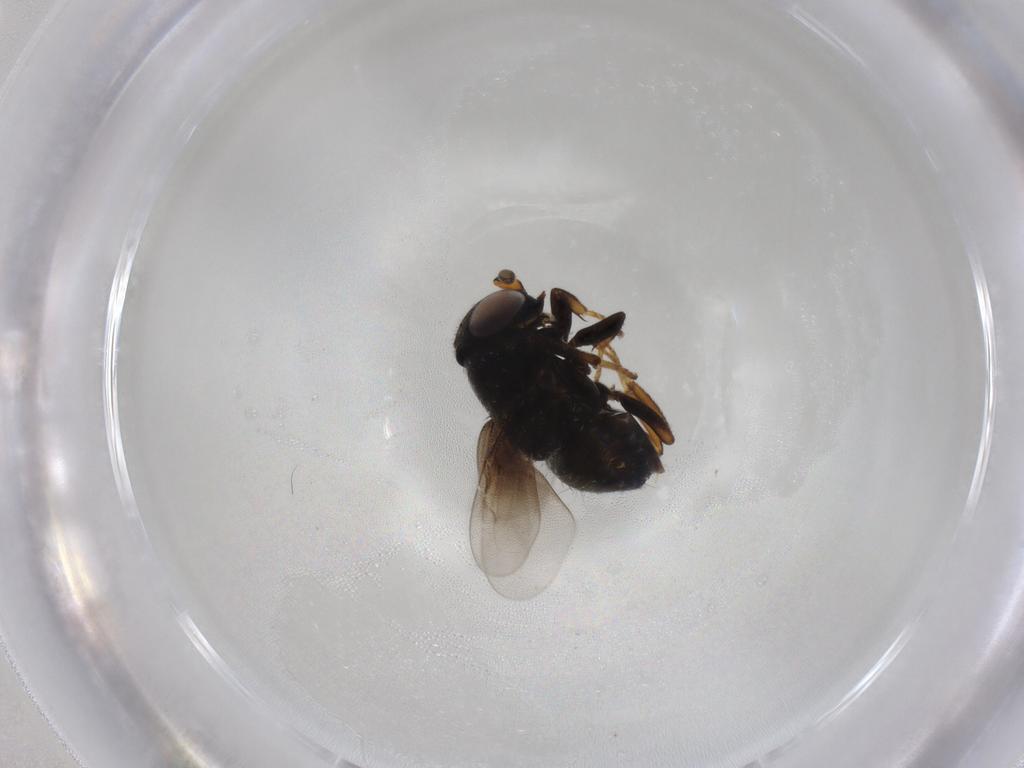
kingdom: Animalia
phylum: Arthropoda
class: Insecta
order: Hymenoptera
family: Encyrtidae
